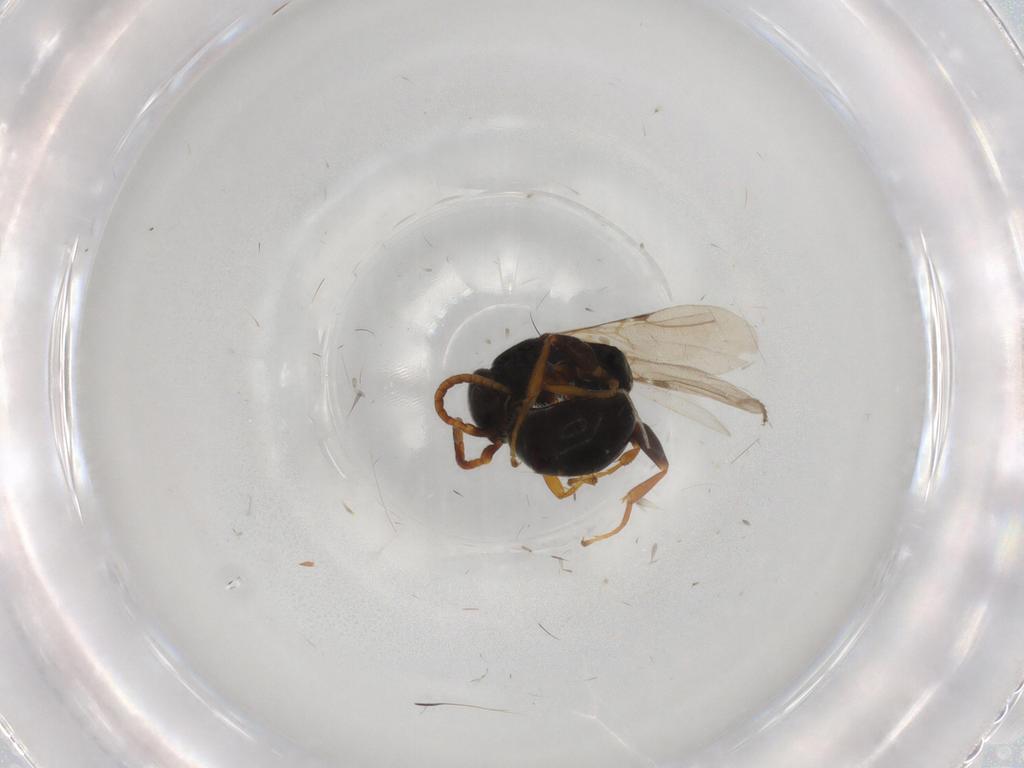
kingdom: Animalia
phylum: Arthropoda
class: Insecta
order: Hymenoptera
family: Bethylidae
